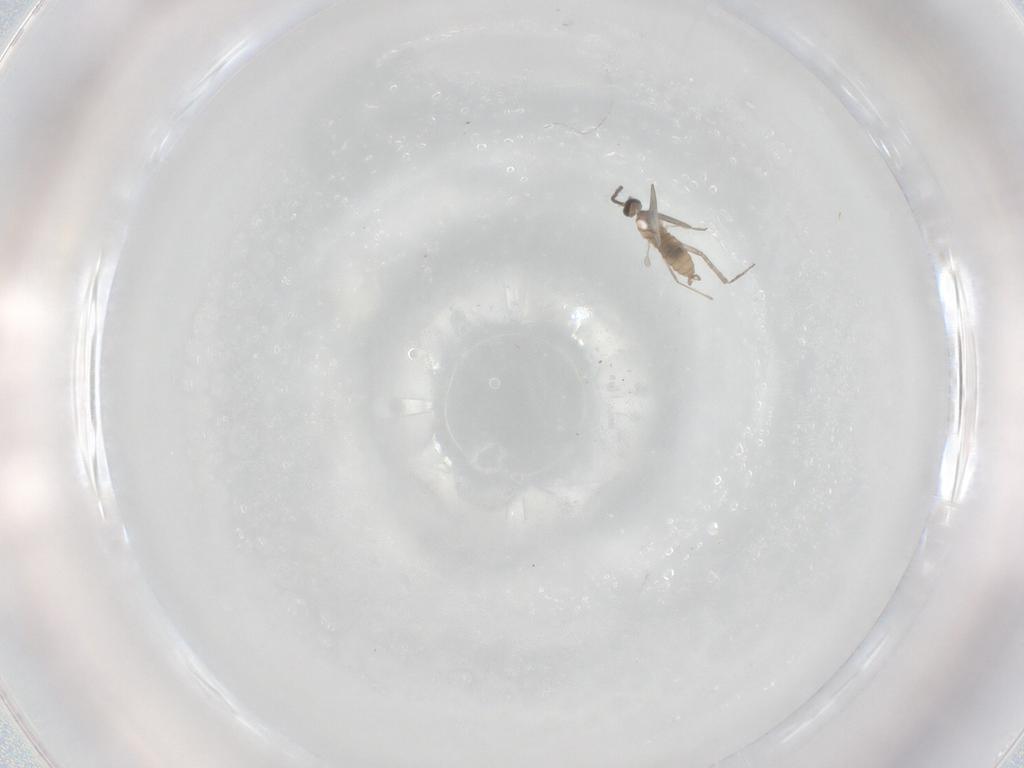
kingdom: Animalia
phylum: Arthropoda
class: Insecta
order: Diptera
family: Cecidomyiidae
